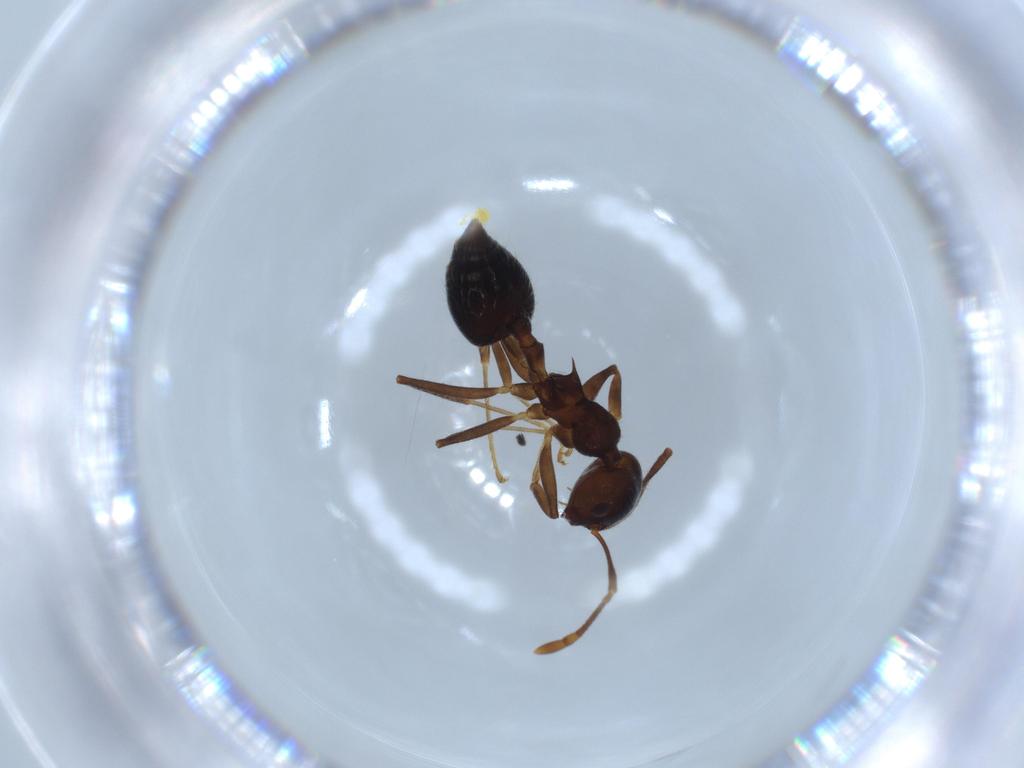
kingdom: Animalia
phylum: Arthropoda
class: Insecta
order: Hymenoptera
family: Formicidae
